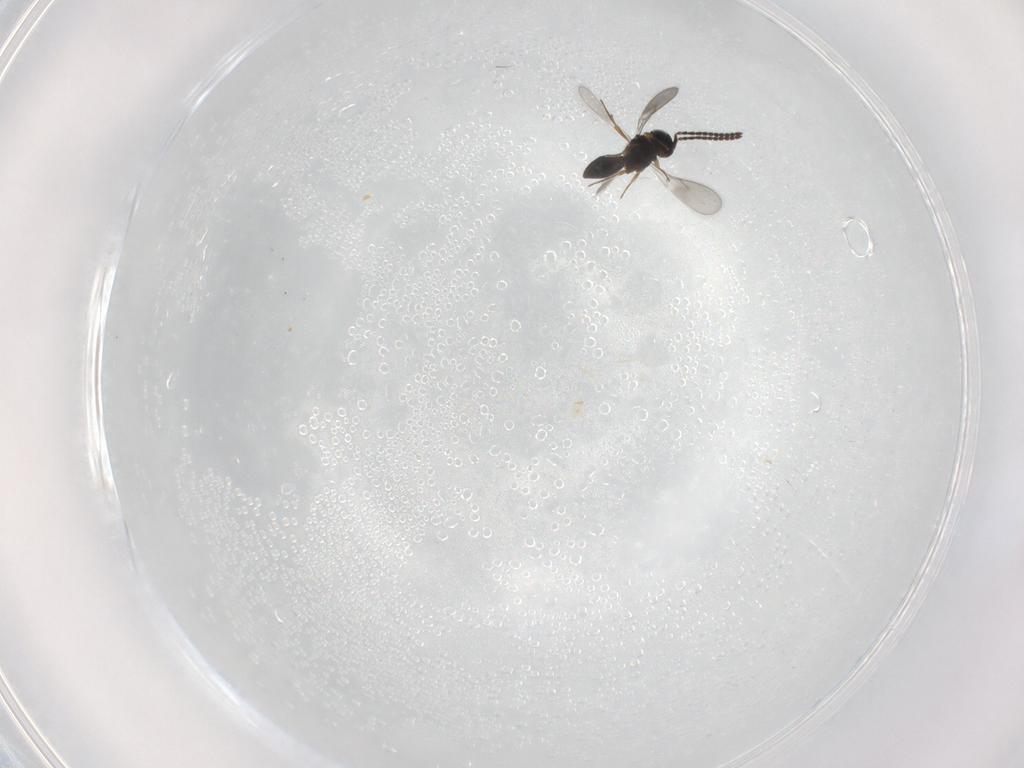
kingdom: Animalia
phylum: Arthropoda
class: Insecta
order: Hymenoptera
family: Scelionidae
